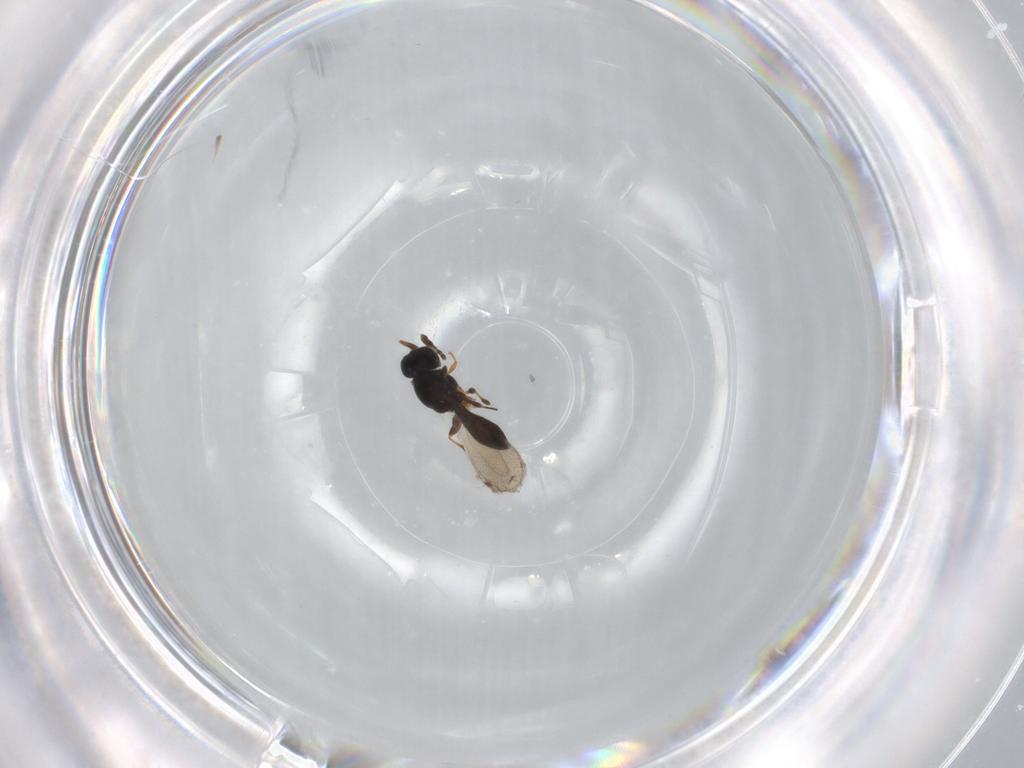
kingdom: Animalia
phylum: Arthropoda
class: Insecta
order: Hymenoptera
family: Platygastridae
